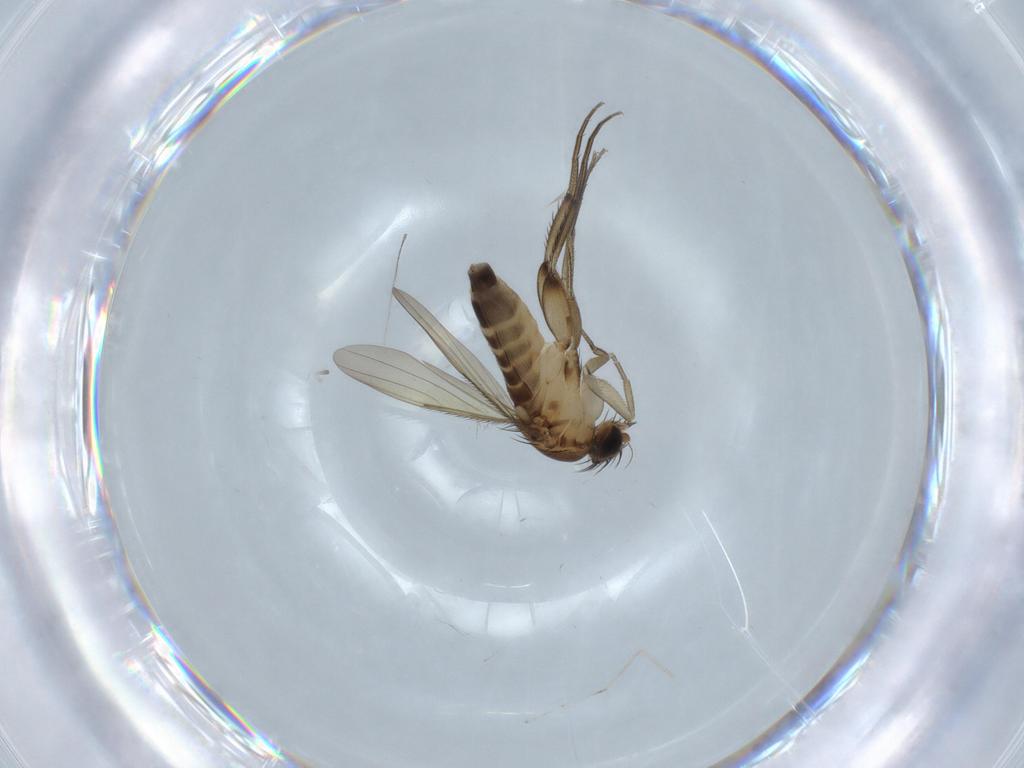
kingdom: Animalia
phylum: Arthropoda
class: Insecta
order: Diptera
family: Phoridae
